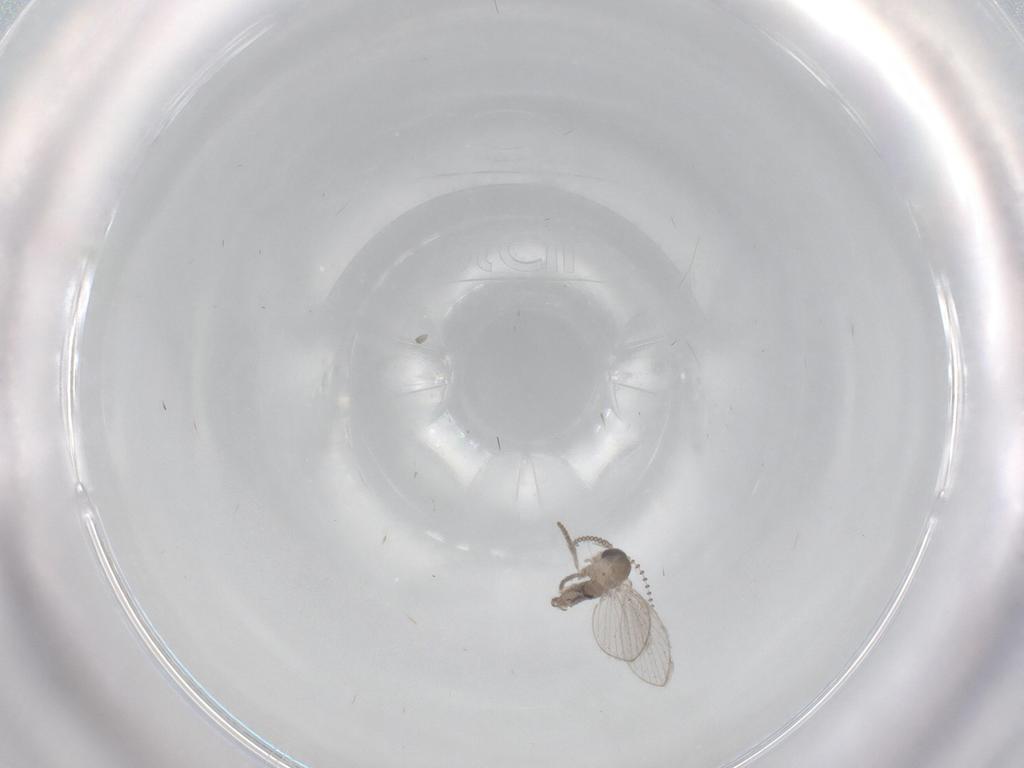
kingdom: Animalia
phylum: Arthropoda
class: Insecta
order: Diptera
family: Psychodidae
